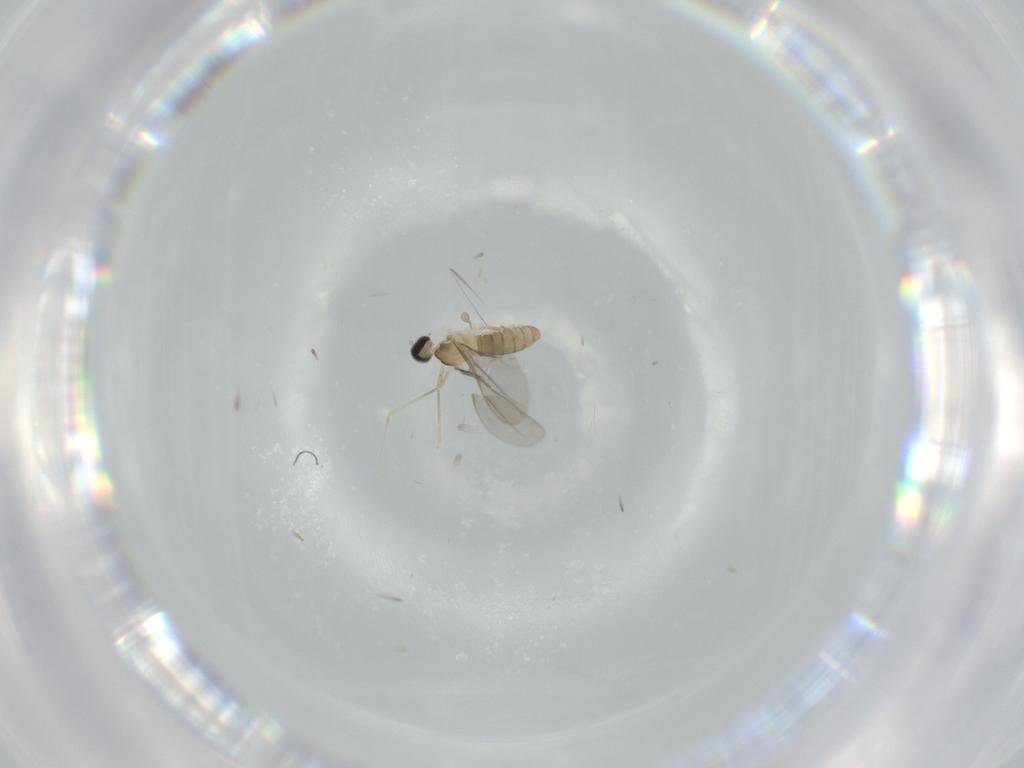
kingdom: Animalia
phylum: Arthropoda
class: Insecta
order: Diptera
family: Cecidomyiidae
